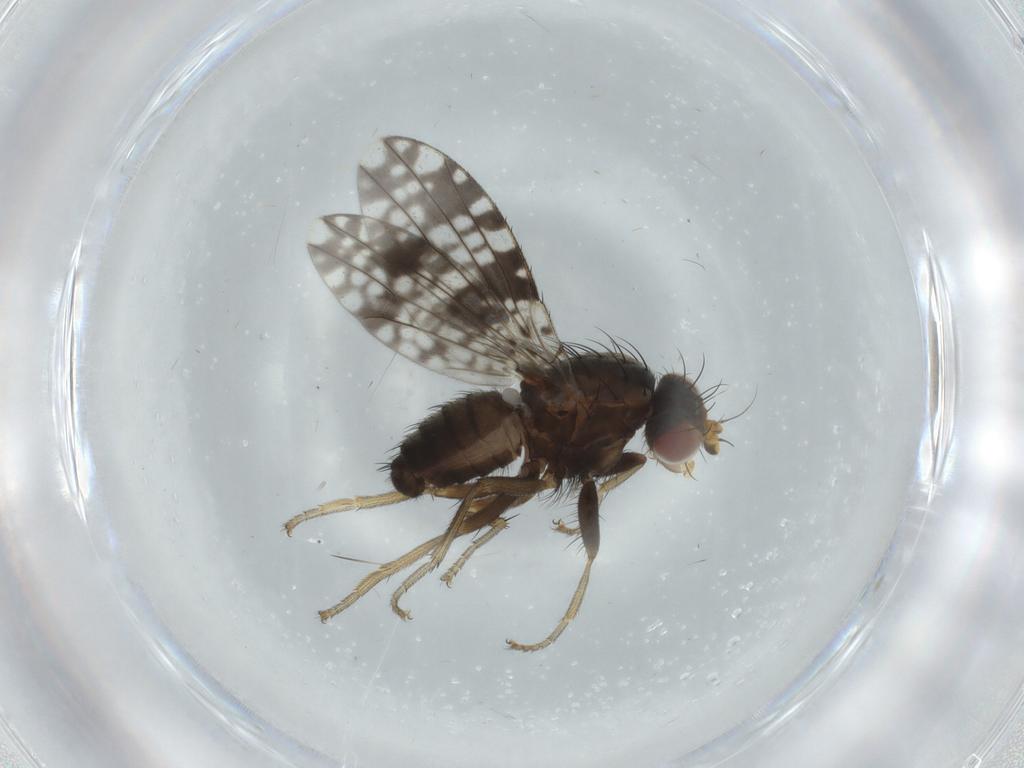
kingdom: Animalia
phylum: Arthropoda
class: Insecta
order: Diptera
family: Tephritidae
